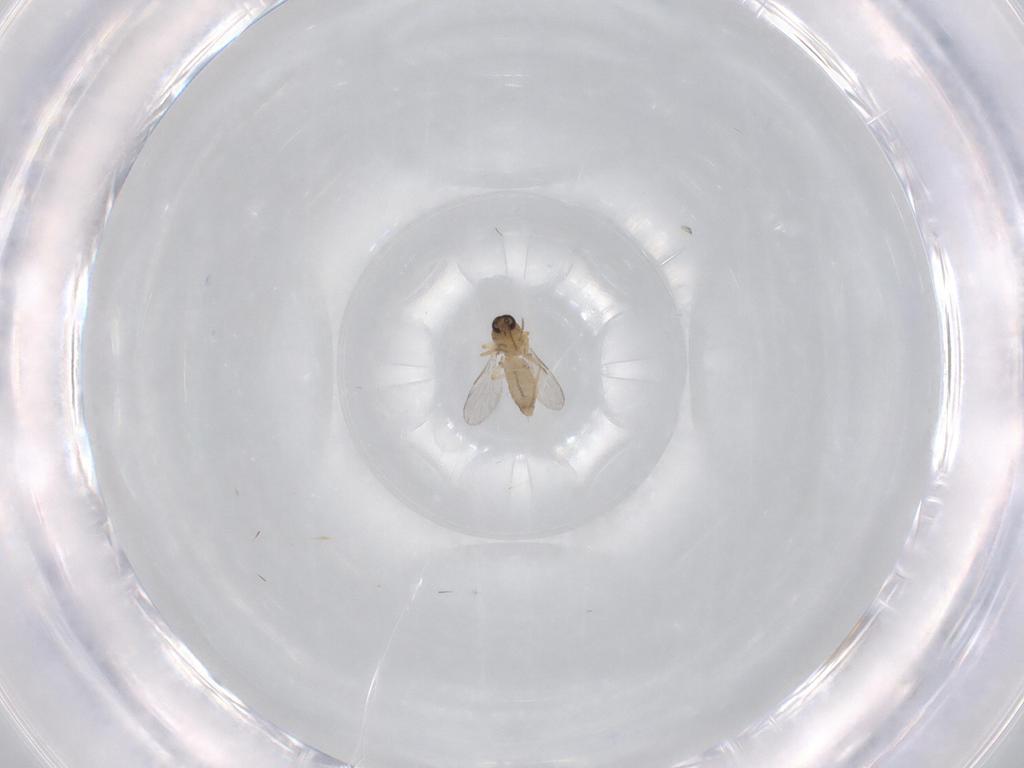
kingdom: Animalia
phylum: Arthropoda
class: Insecta
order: Diptera
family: Ceratopogonidae
